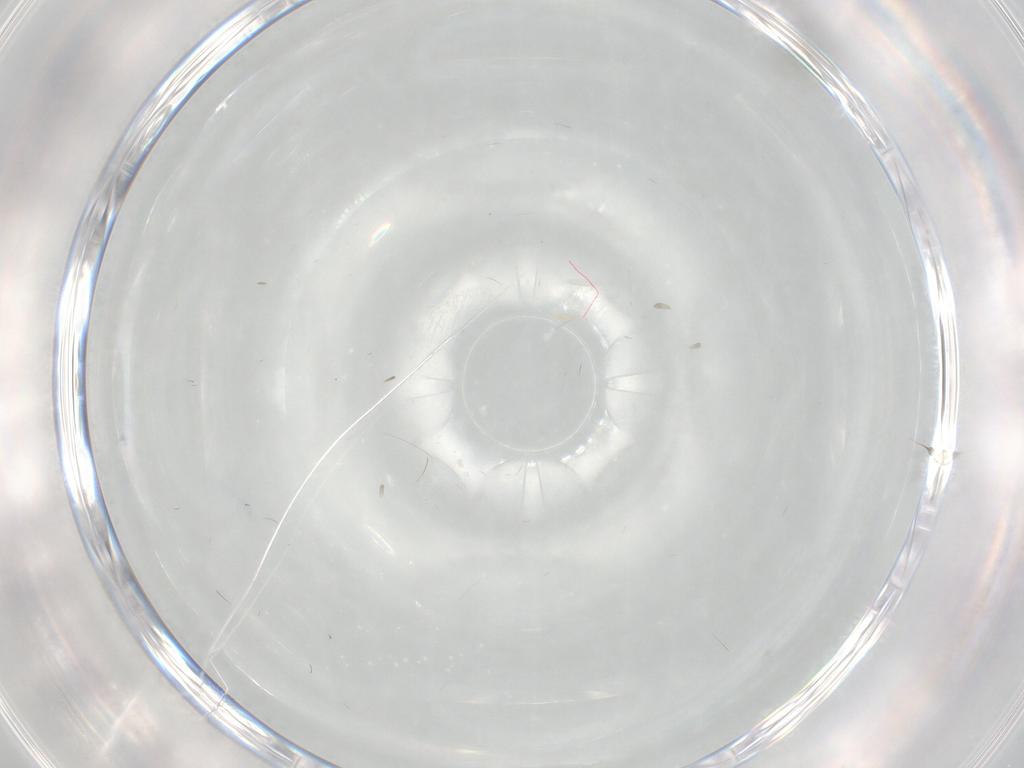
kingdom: Animalia
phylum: Arthropoda
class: Insecta
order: Hymenoptera
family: Mymaridae
